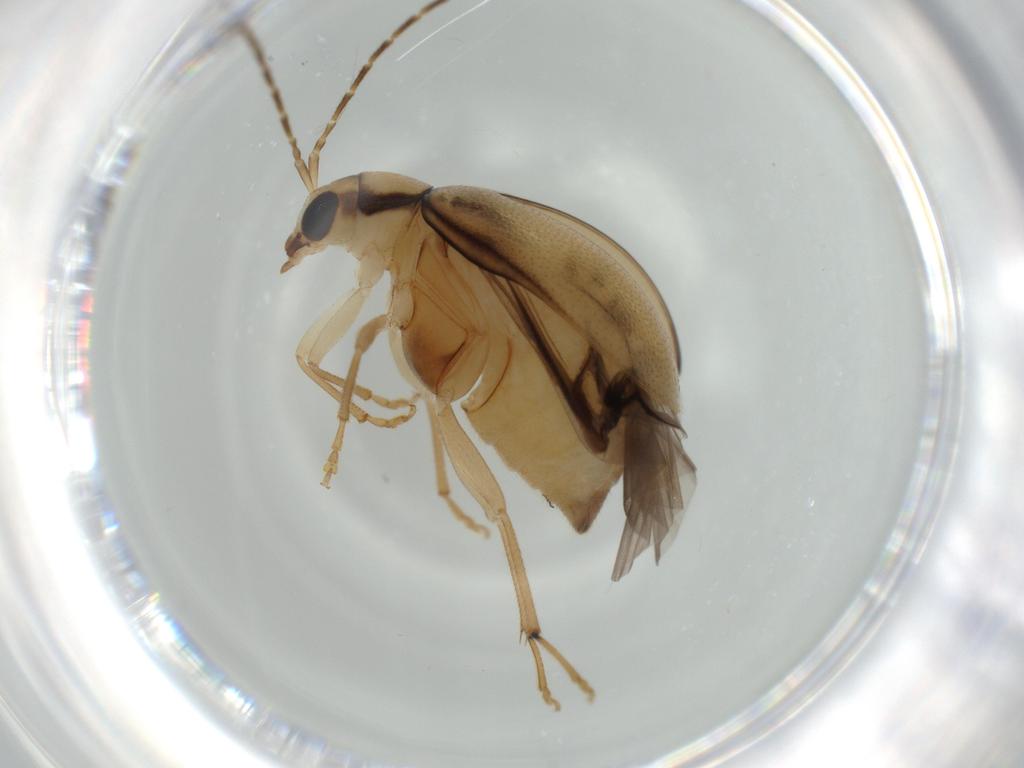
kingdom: Animalia
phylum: Arthropoda
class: Insecta
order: Coleoptera
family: Chrysomelidae
